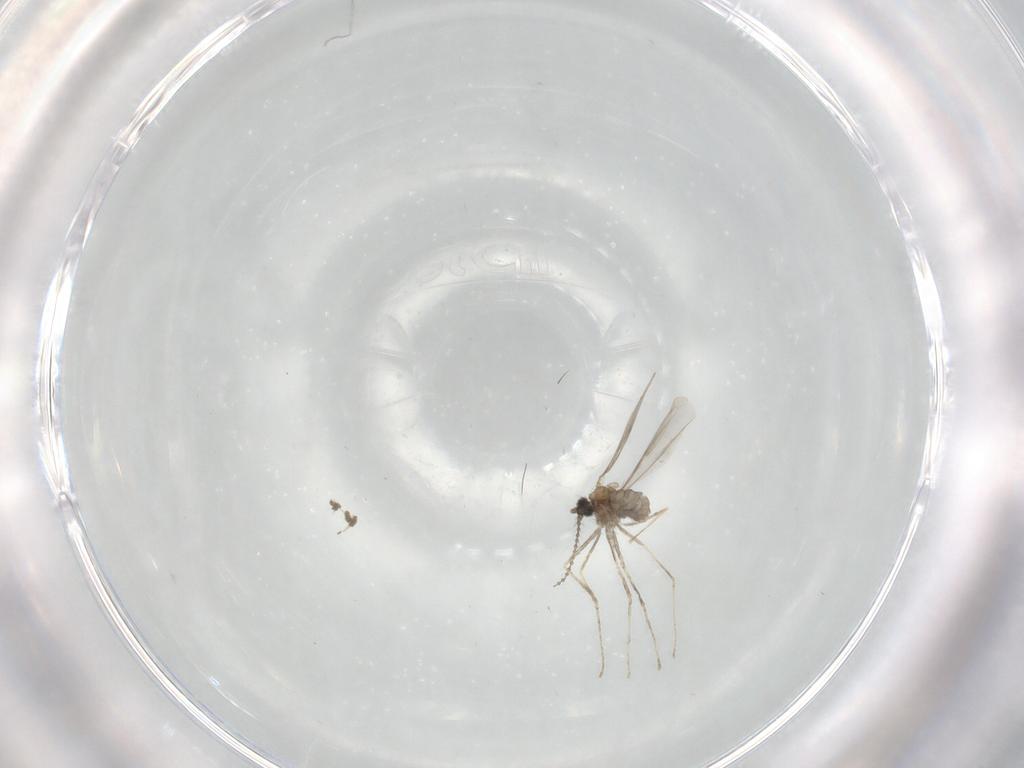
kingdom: Animalia
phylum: Arthropoda
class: Insecta
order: Diptera
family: Cecidomyiidae
